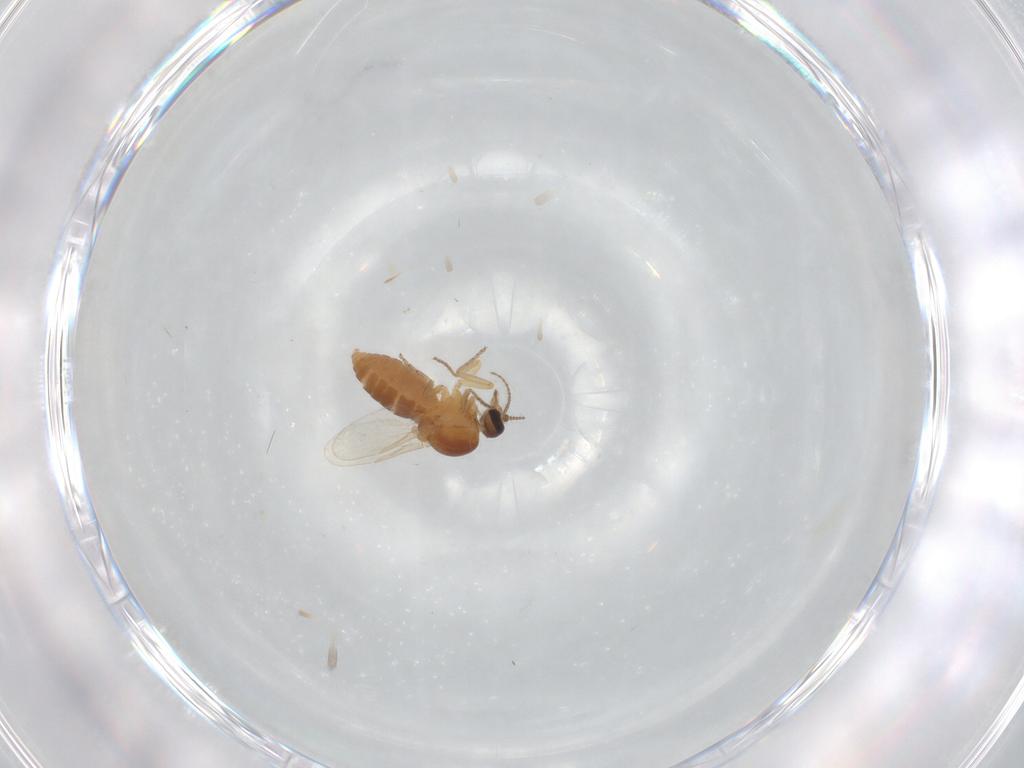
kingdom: Animalia
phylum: Arthropoda
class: Insecta
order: Diptera
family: Ceratopogonidae
